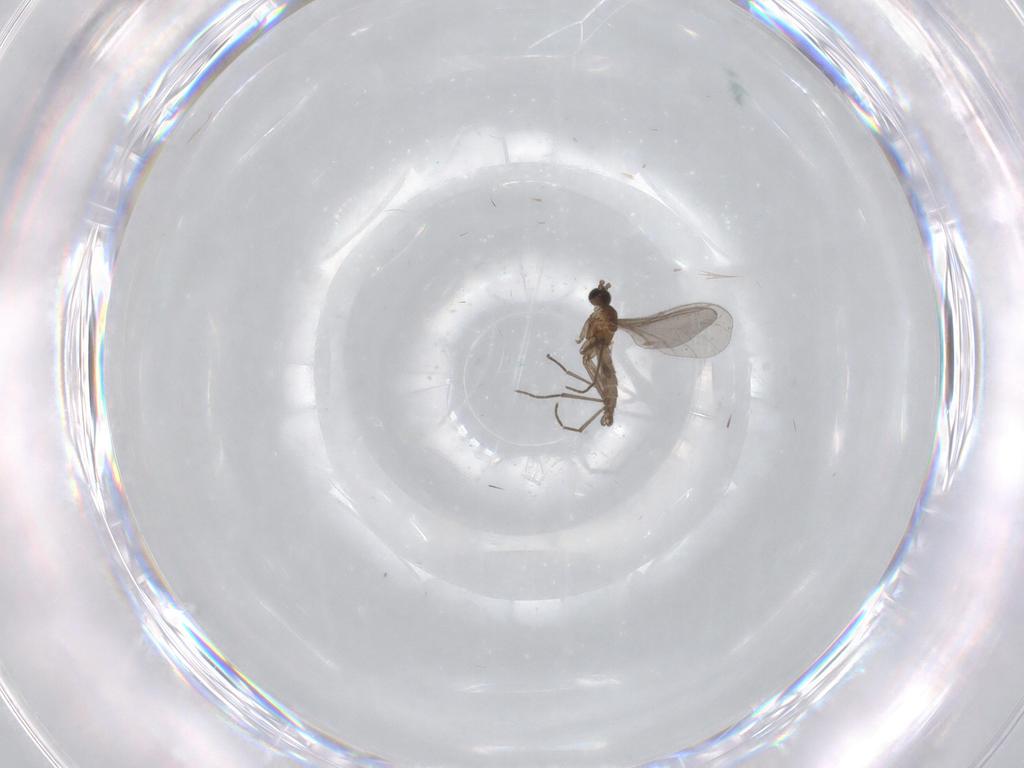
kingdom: Animalia
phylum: Arthropoda
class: Insecta
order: Diptera
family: Sciaridae
